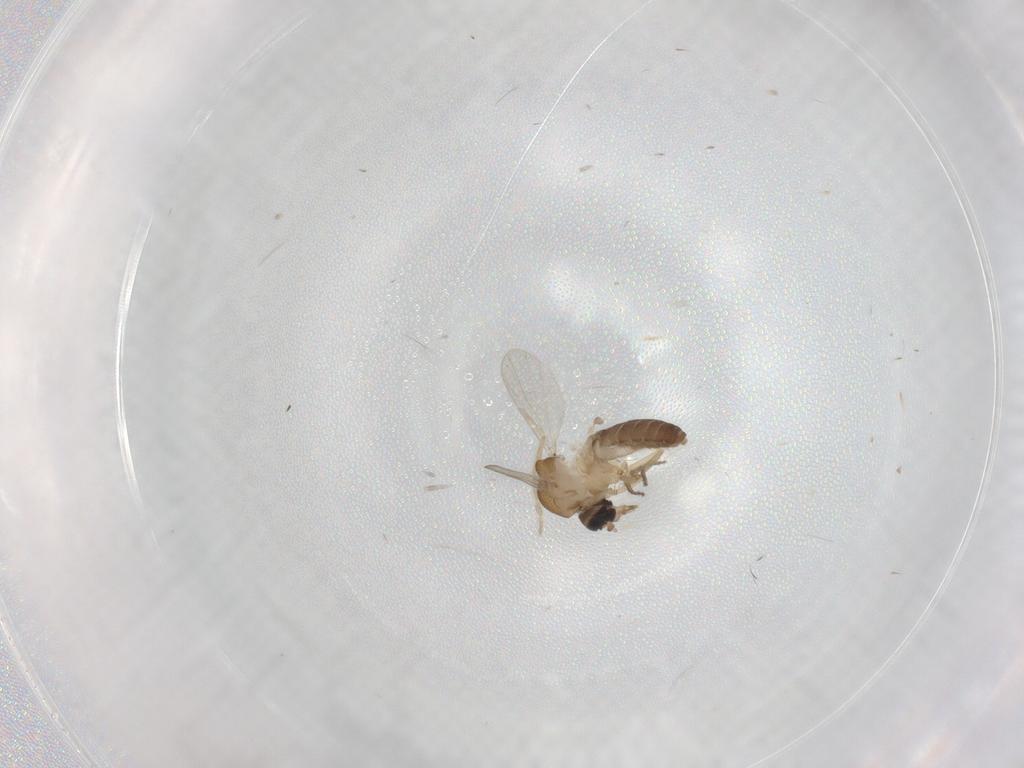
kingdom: Animalia
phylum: Arthropoda
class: Insecta
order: Diptera
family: Ceratopogonidae
